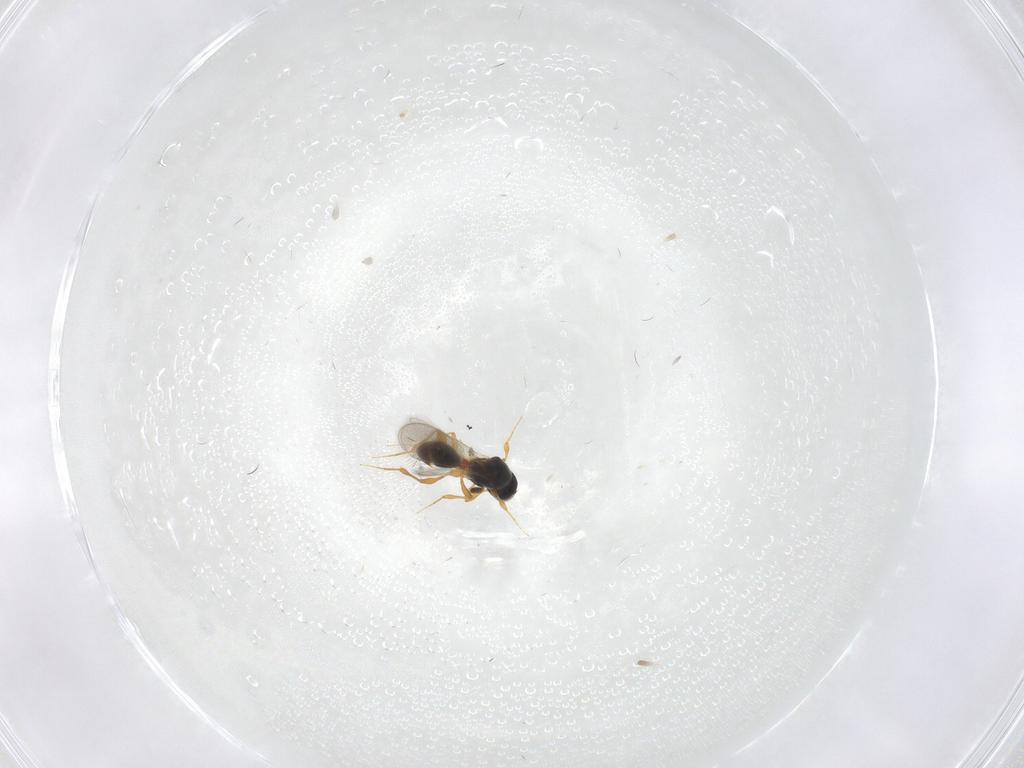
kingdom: Animalia
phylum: Arthropoda
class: Insecta
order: Hymenoptera
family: Platygastridae
